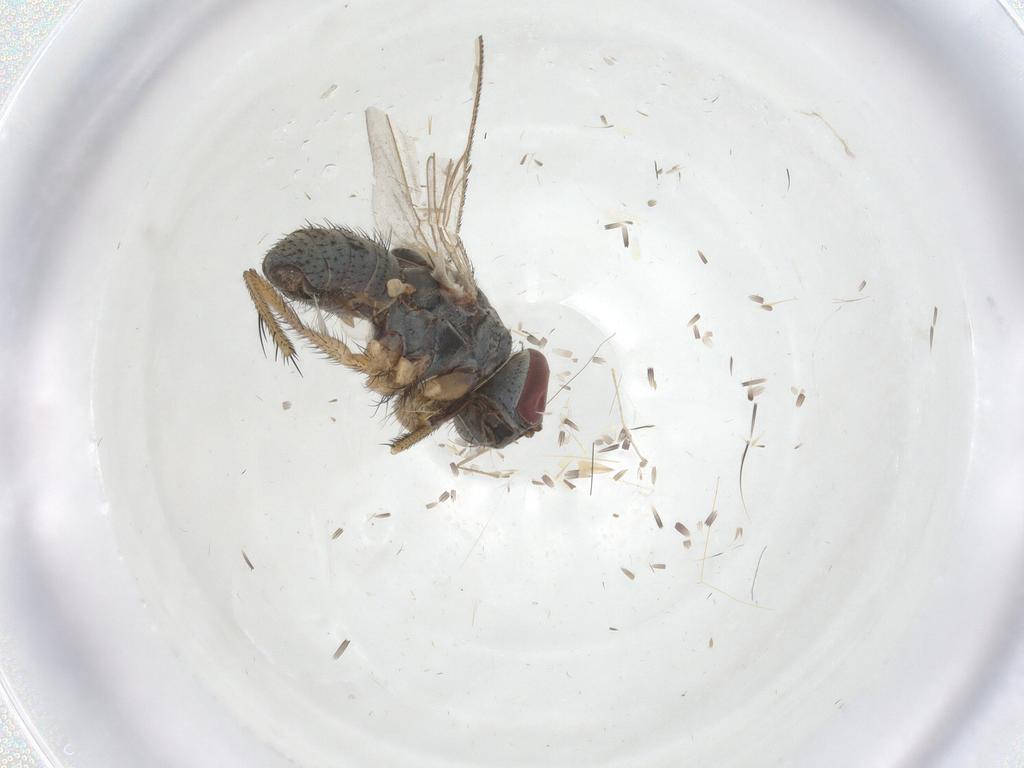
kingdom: Animalia
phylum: Arthropoda
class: Insecta
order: Diptera
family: Muscidae
